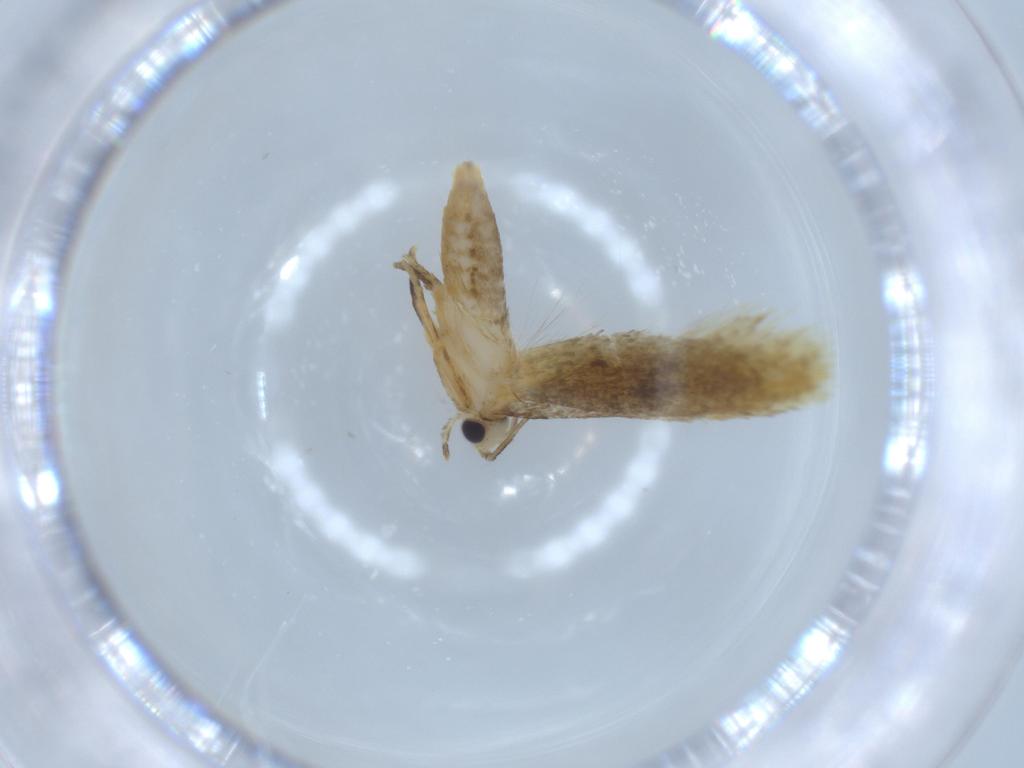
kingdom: Animalia
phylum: Arthropoda
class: Insecta
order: Lepidoptera
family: Tineidae
